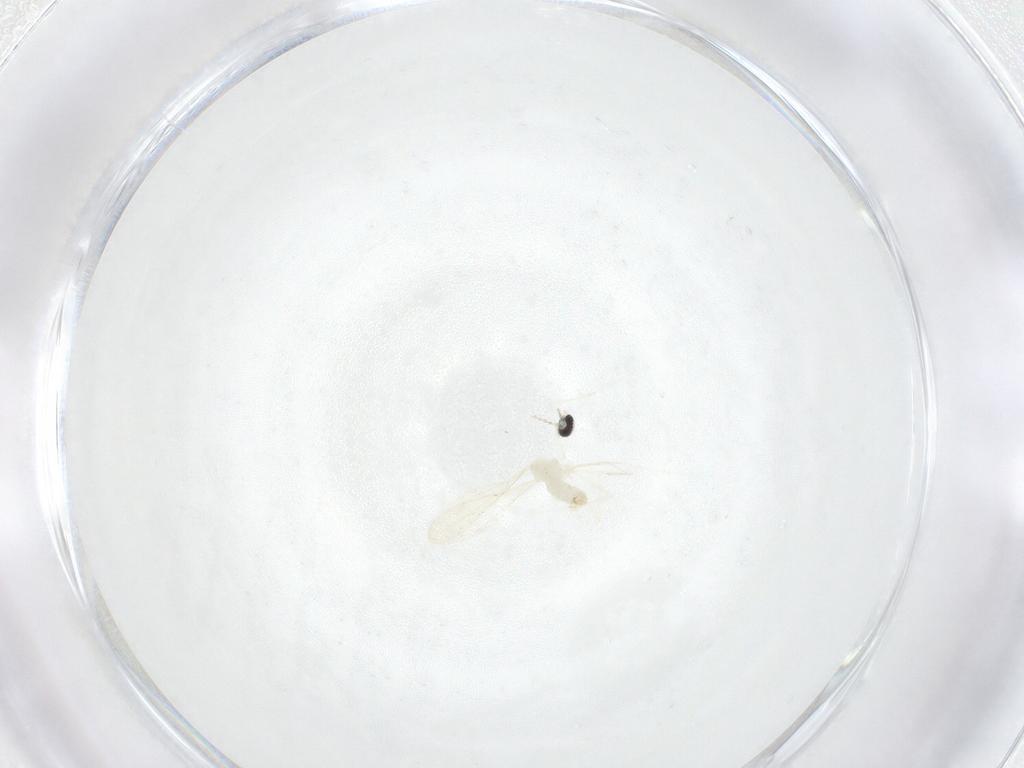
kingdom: Animalia
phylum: Arthropoda
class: Insecta
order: Diptera
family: Cecidomyiidae
